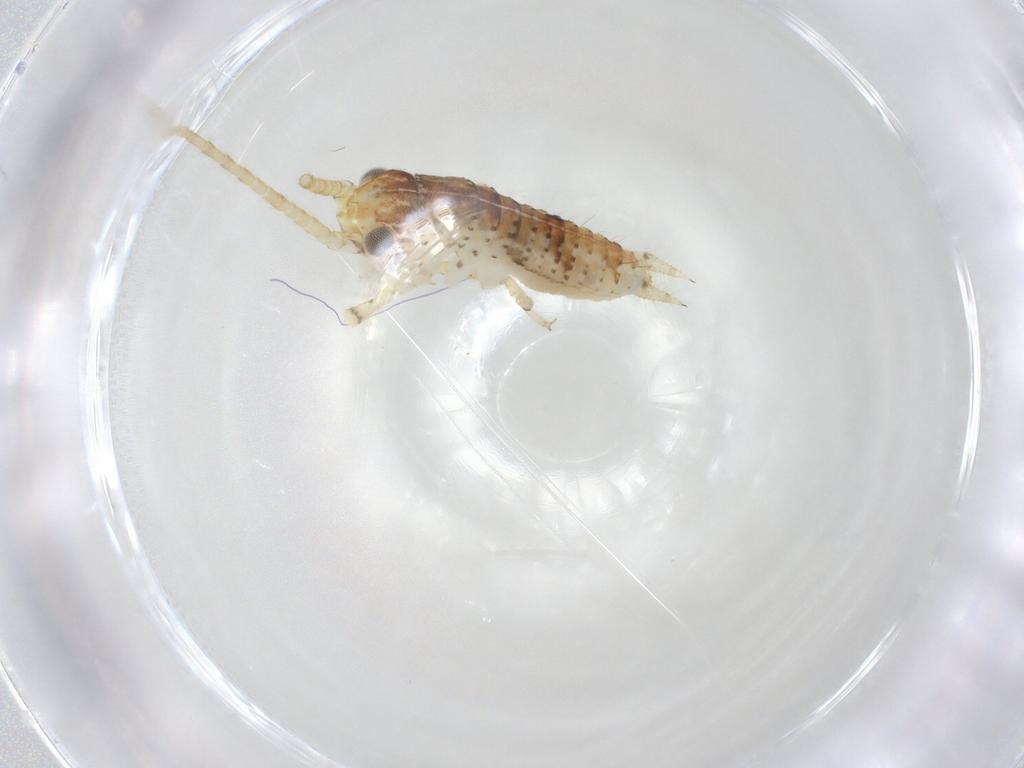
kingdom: Animalia
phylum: Arthropoda
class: Insecta
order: Orthoptera
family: Gryllidae
